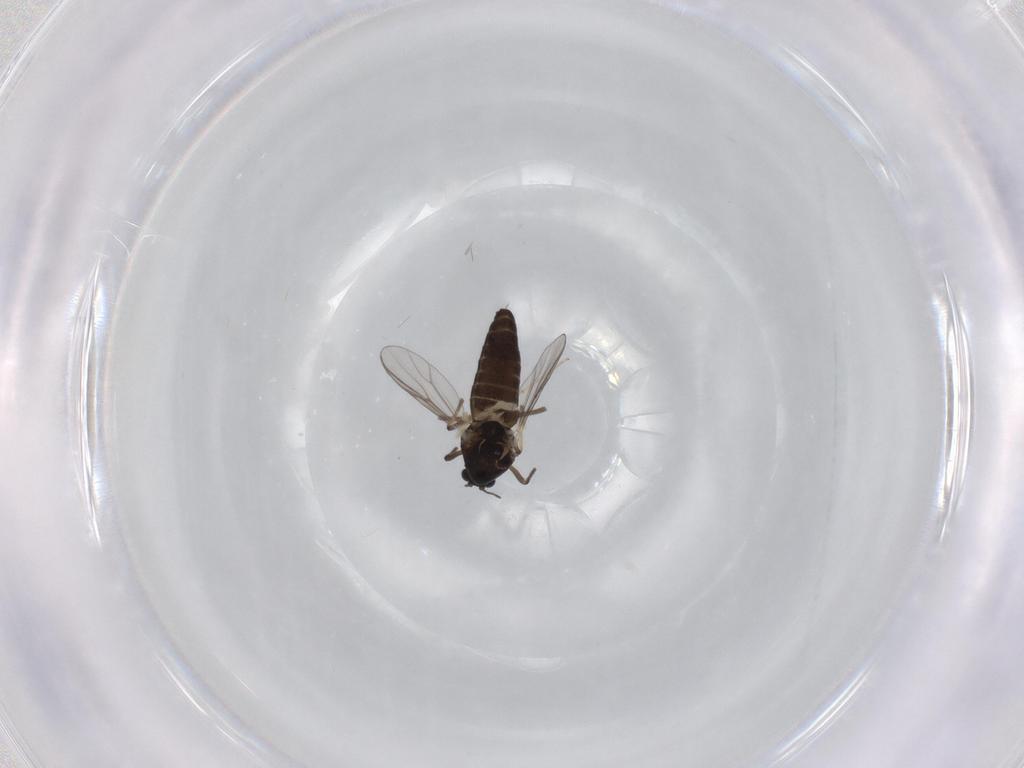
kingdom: Animalia
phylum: Arthropoda
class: Insecta
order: Diptera
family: Chironomidae
